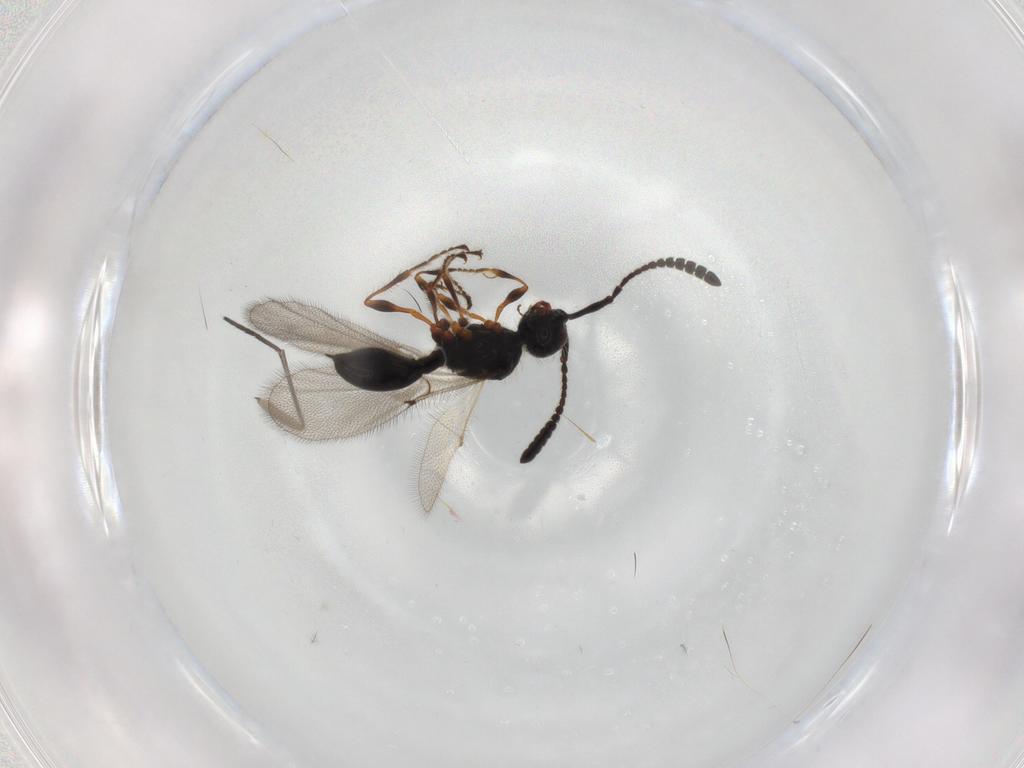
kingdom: Animalia
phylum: Arthropoda
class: Insecta
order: Hymenoptera
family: Diapriidae
